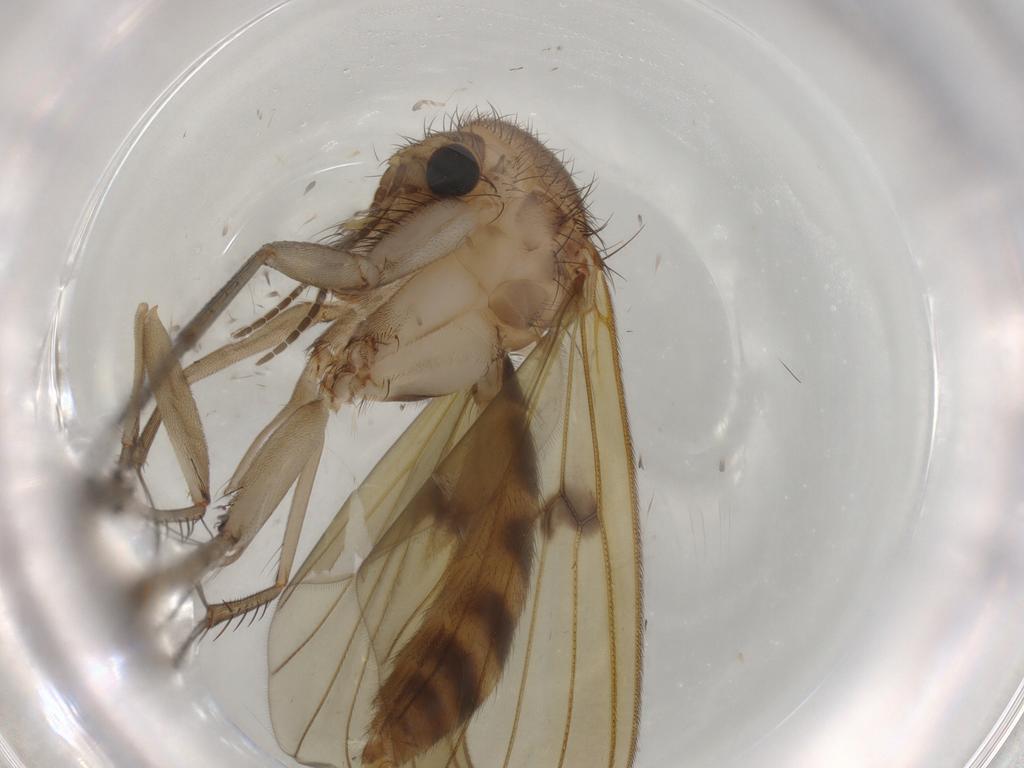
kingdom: Animalia
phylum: Arthropoda
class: Insecta
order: Diptera
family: Mycetophilidae
